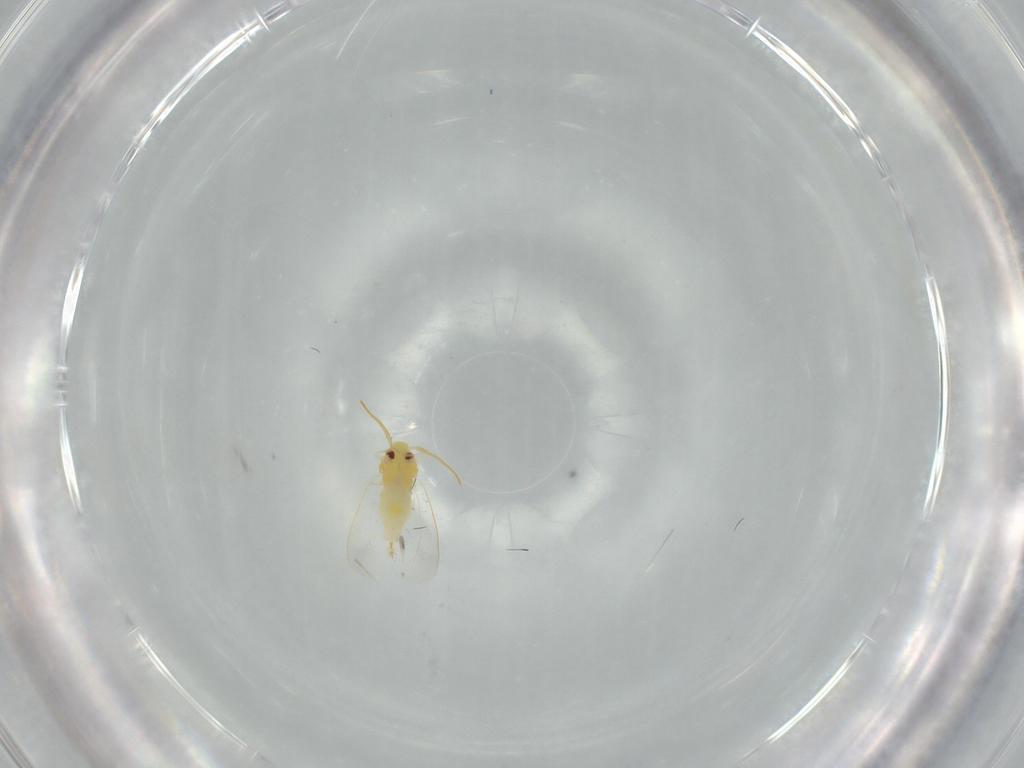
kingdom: Animalia
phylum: Arthropoda
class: Insecta
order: Hemiptera
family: Aleyrodidae
